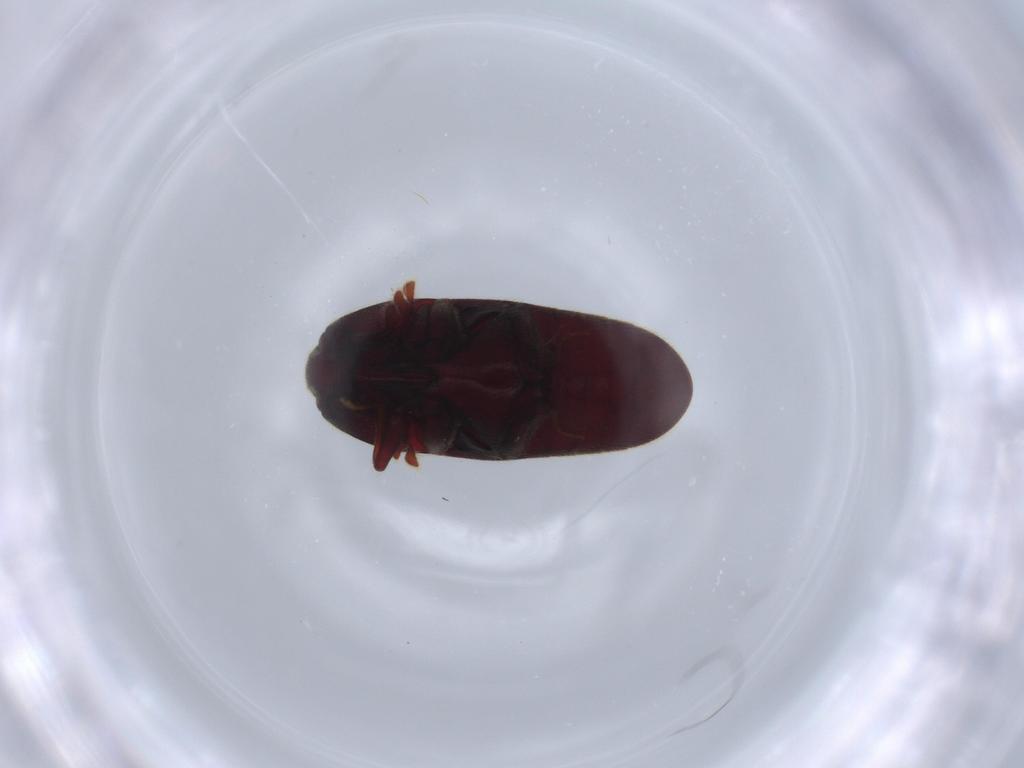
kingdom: Animalia
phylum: Arthropoda
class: Insecta
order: Coleoptera
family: Throscidae
